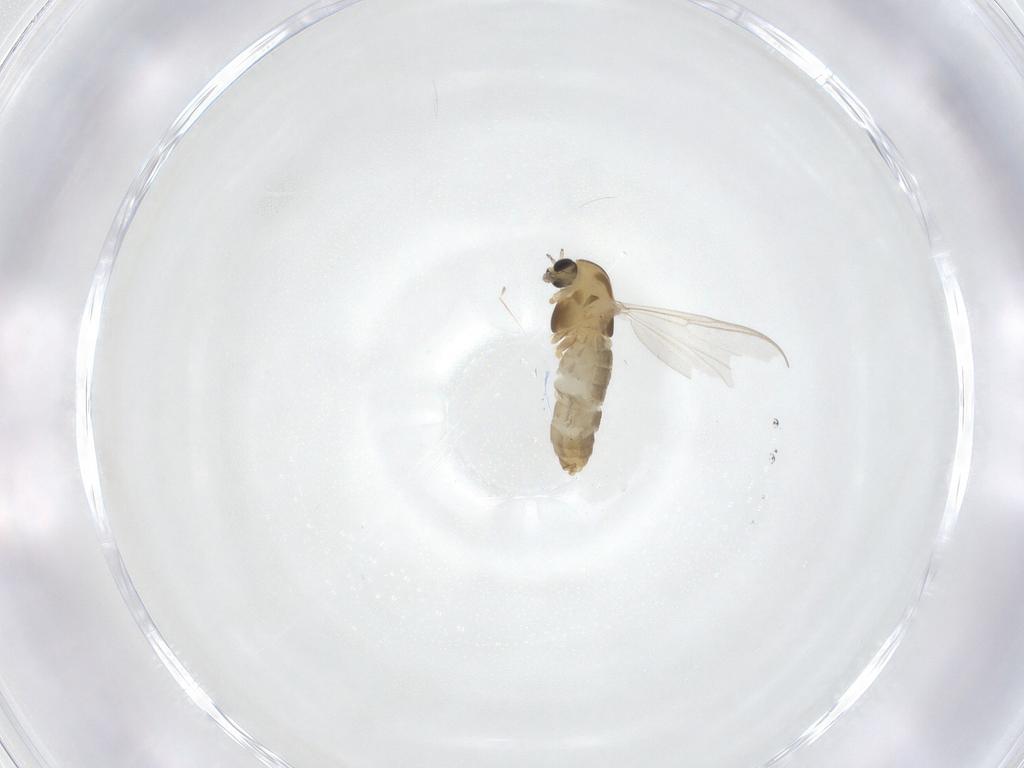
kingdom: Animalia
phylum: Arthropoda
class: Insecta
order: Diptera
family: Chironomidae
